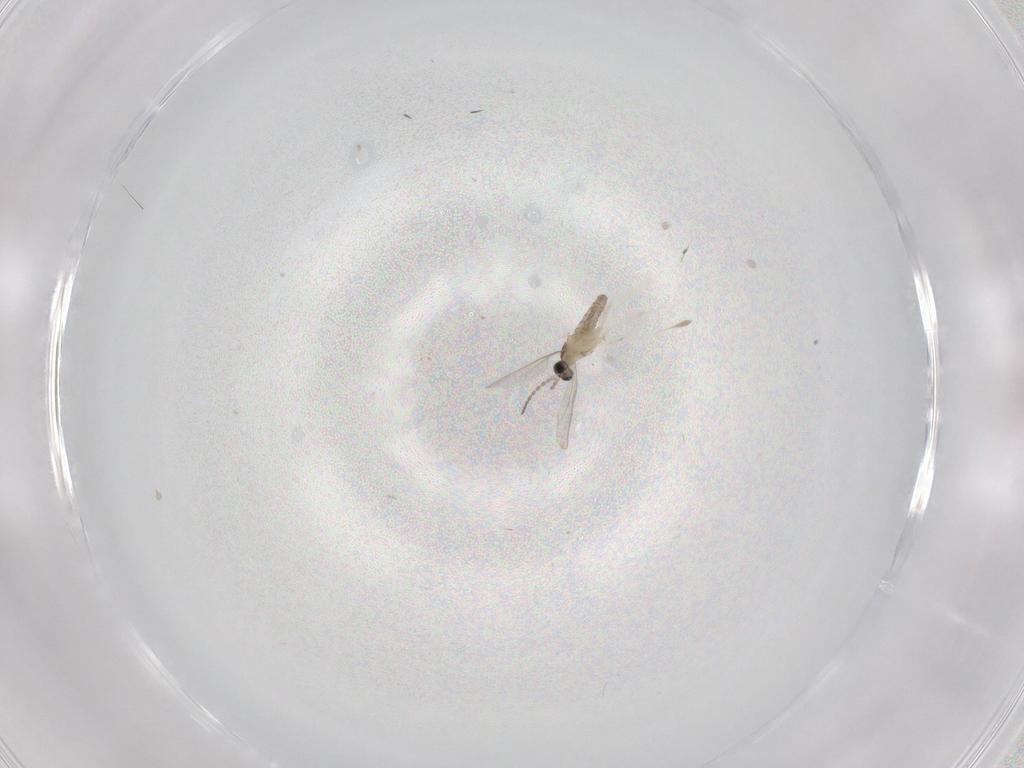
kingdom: Animalia
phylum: Arthropoda
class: Insecta
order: Diptera
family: Cecidomyiidae
